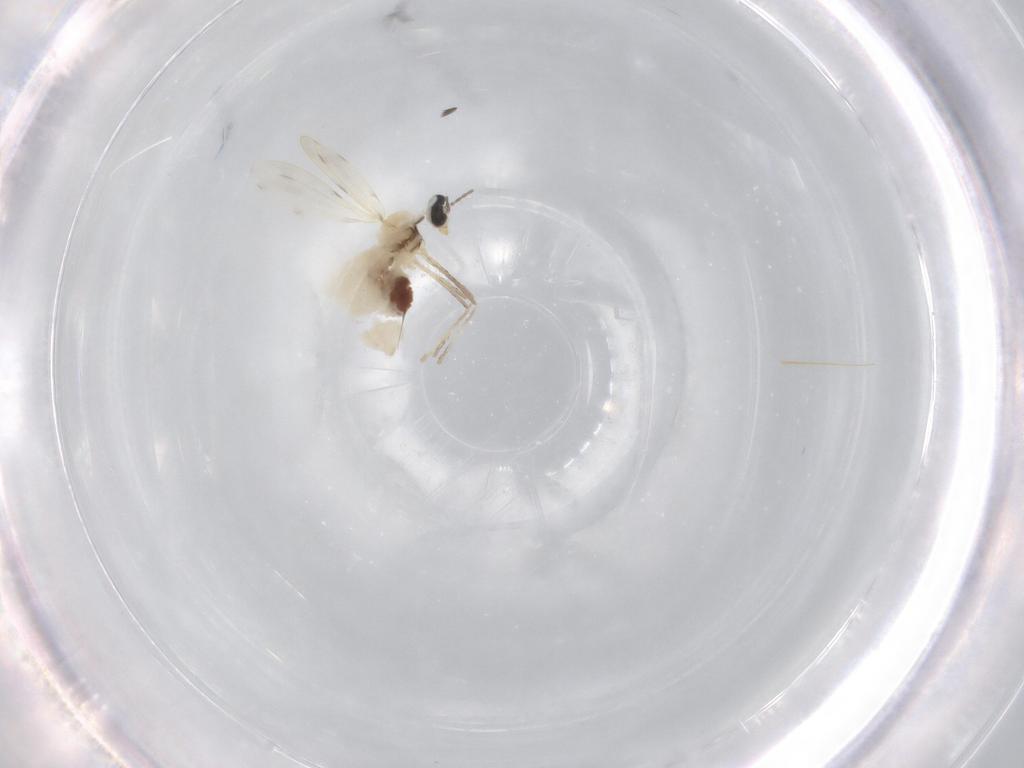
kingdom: Animalia
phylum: Arthropoda
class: Insecta
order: Diptera
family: Cecidomyiidae
